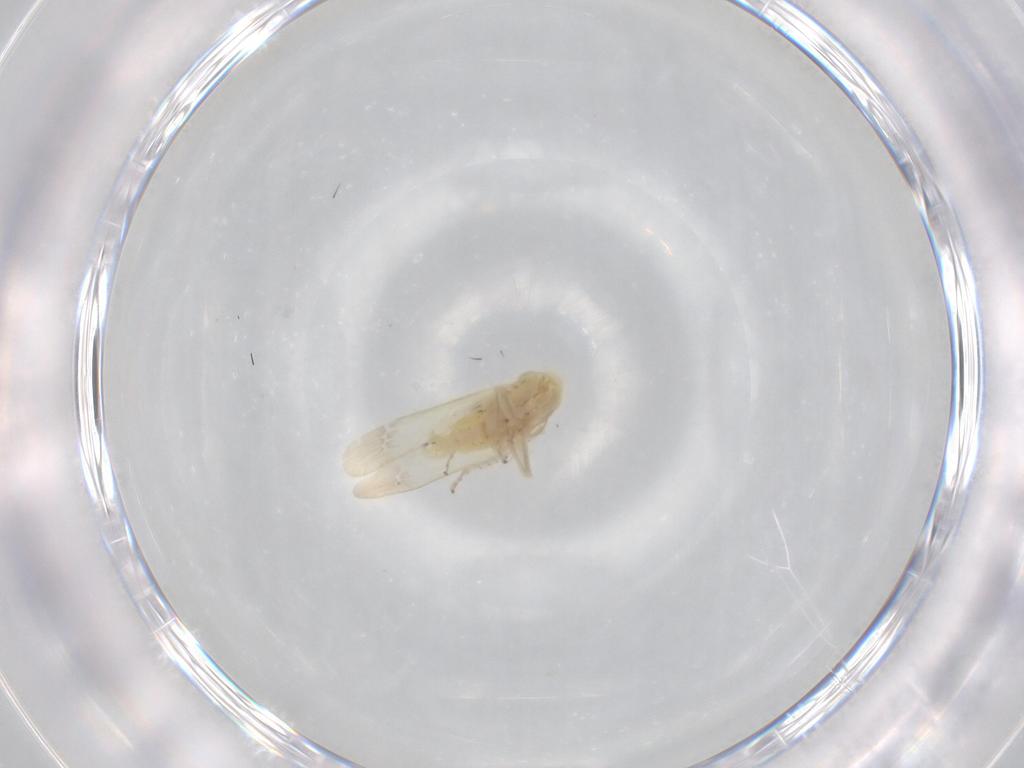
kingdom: Animalia
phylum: Arthropoda
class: Insecta
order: Hemiptera
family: Cicadellidae
